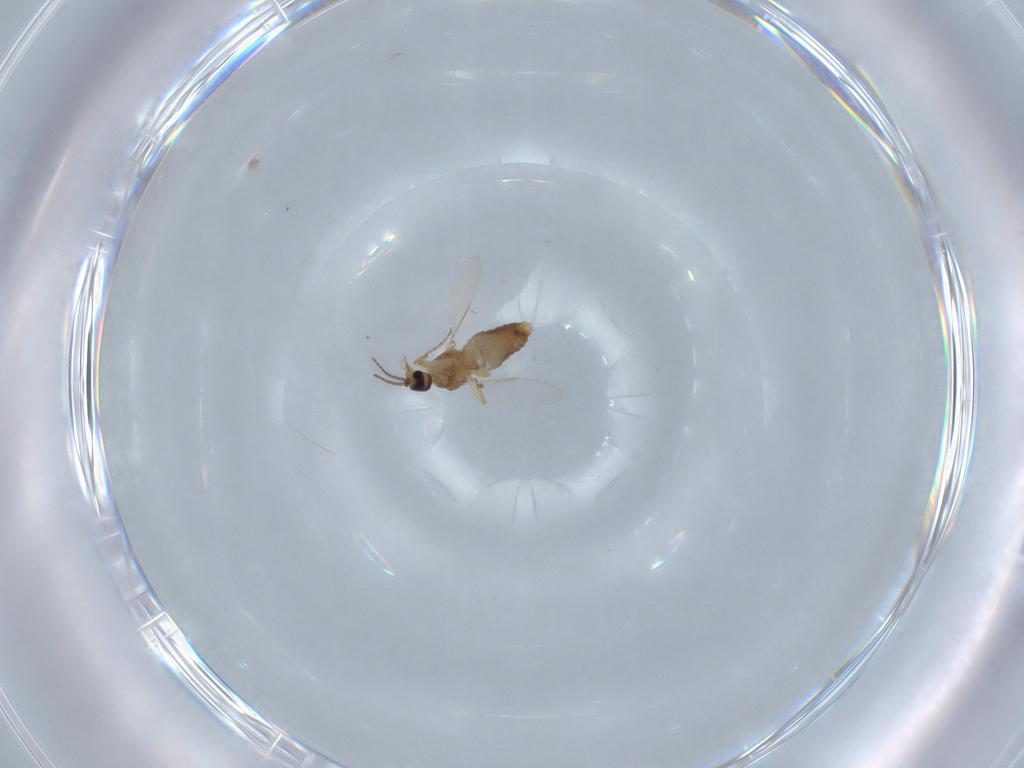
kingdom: Animalia
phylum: Arthropoda
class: Insecta
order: Diptera
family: Ceratopogonidae
